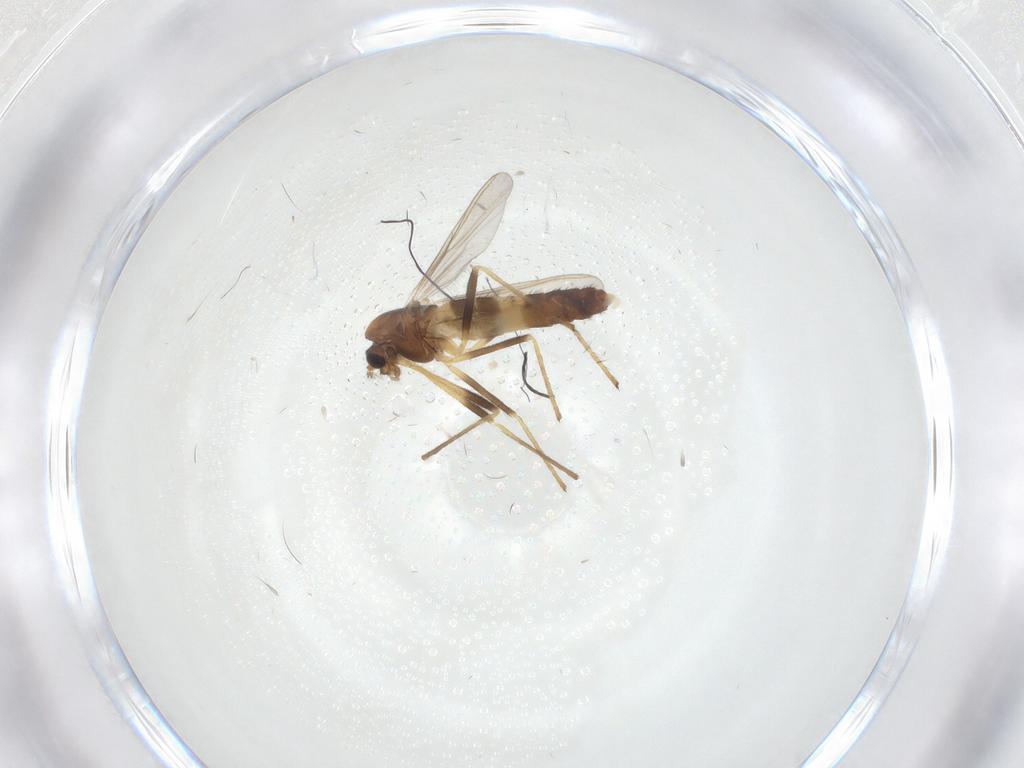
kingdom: Animalia
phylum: Arthropoda
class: Insecta
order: Diptera
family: Chironomidae
